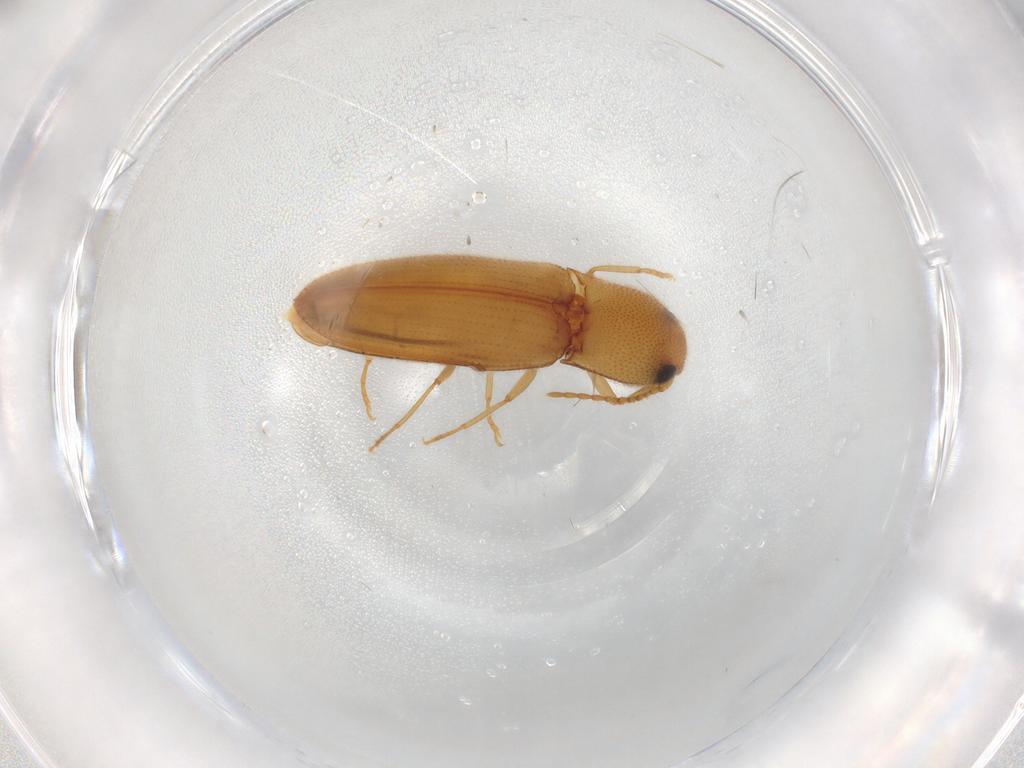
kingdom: Animalia
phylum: Arthropoda
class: Insecta
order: Coleoptera
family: Elateridae
